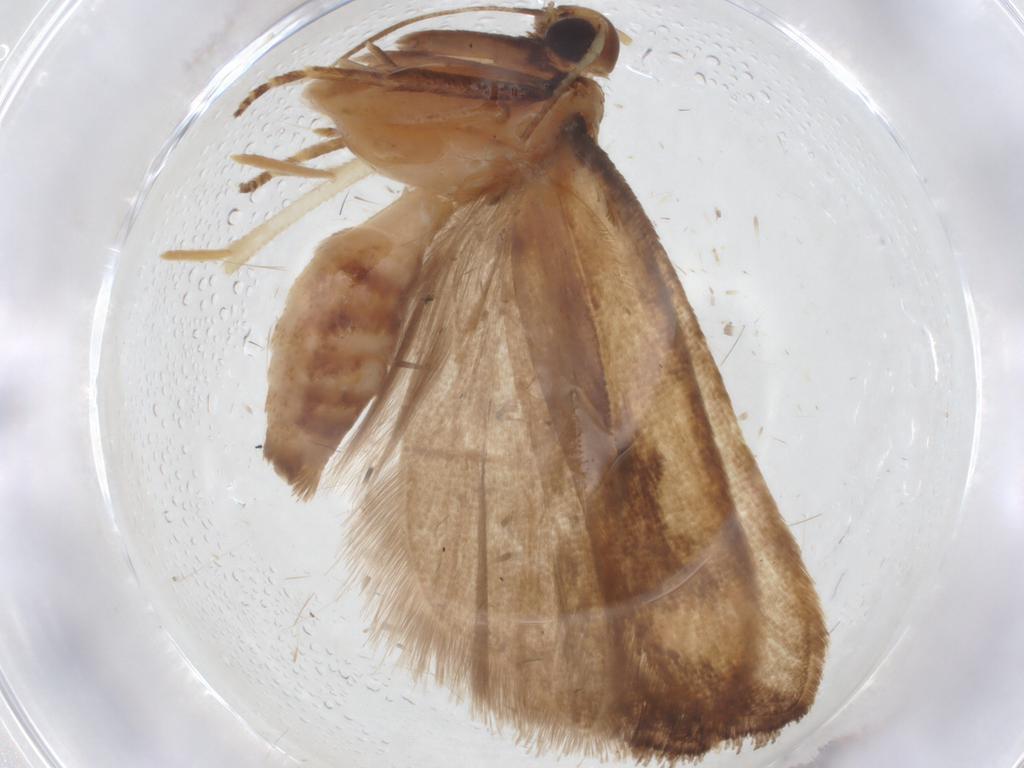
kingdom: Animalia
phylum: Arthropoda
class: Insecta
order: Lepidoptera
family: Gelechiidae
